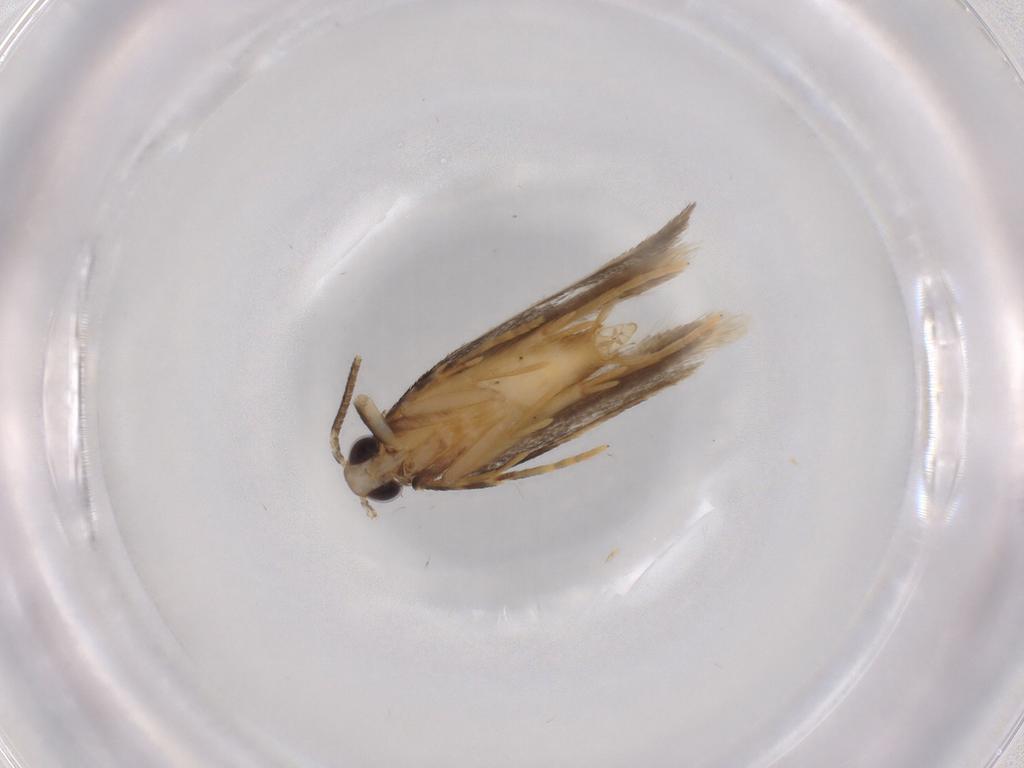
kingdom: Animalia
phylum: Arthropoda
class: Insecta
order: Lepidoptera
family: Autostichidae
